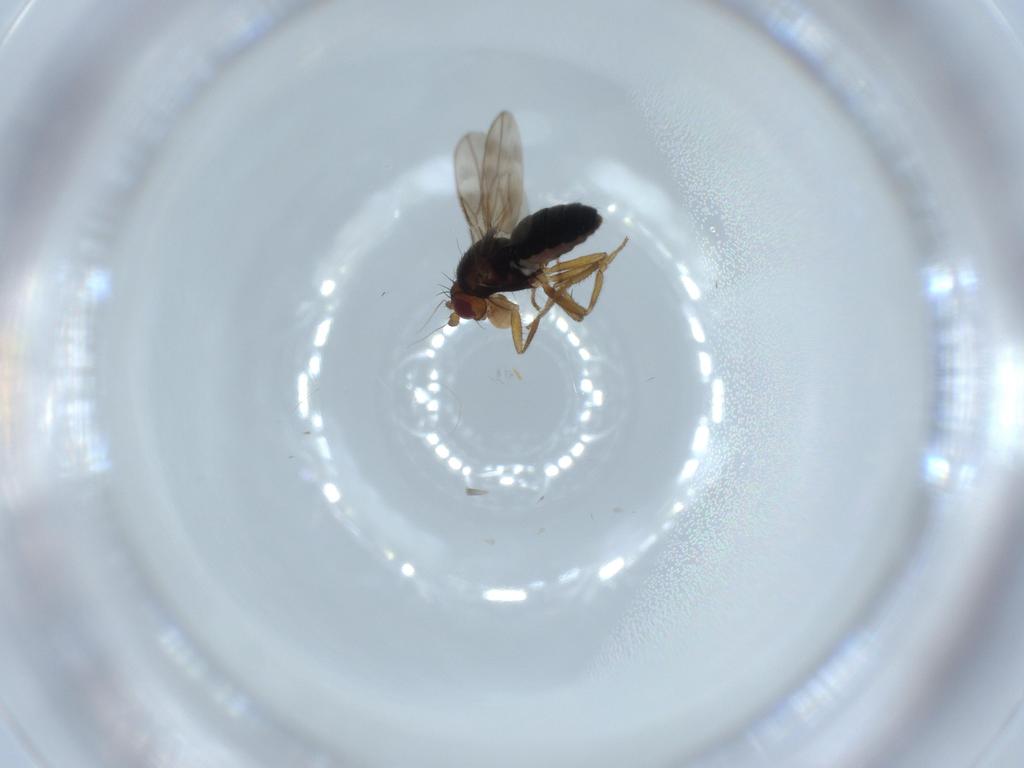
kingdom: Animalia
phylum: Arthropoda
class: Insecta
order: Diptera
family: Sphaeroceridae
